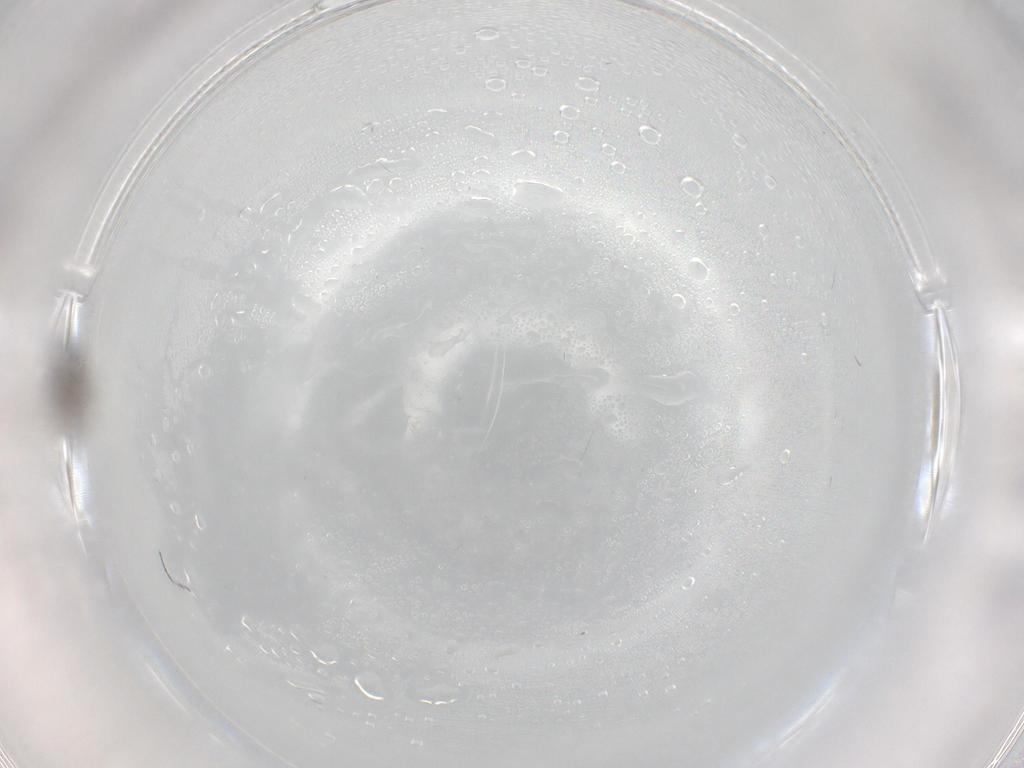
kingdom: Animalia
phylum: Arthropoda
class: Insecta
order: Diptera
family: Cecidomyiidae
